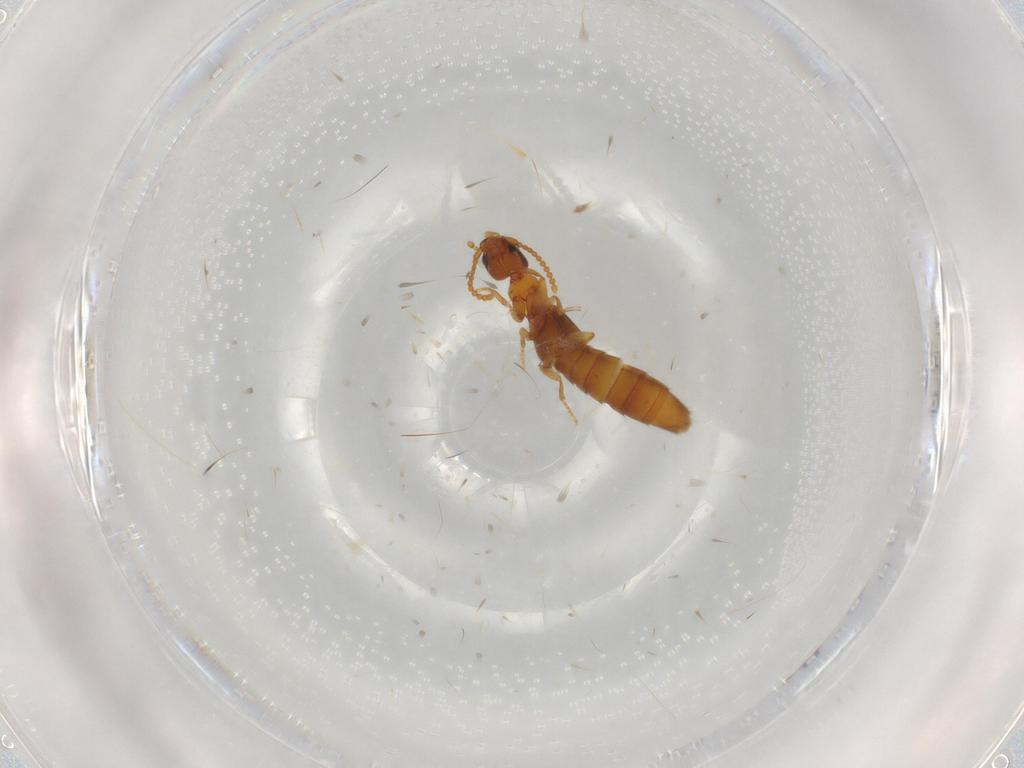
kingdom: Animalia
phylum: Arthropoda
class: Insecta
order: Coleoptera
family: Staphylinidae
